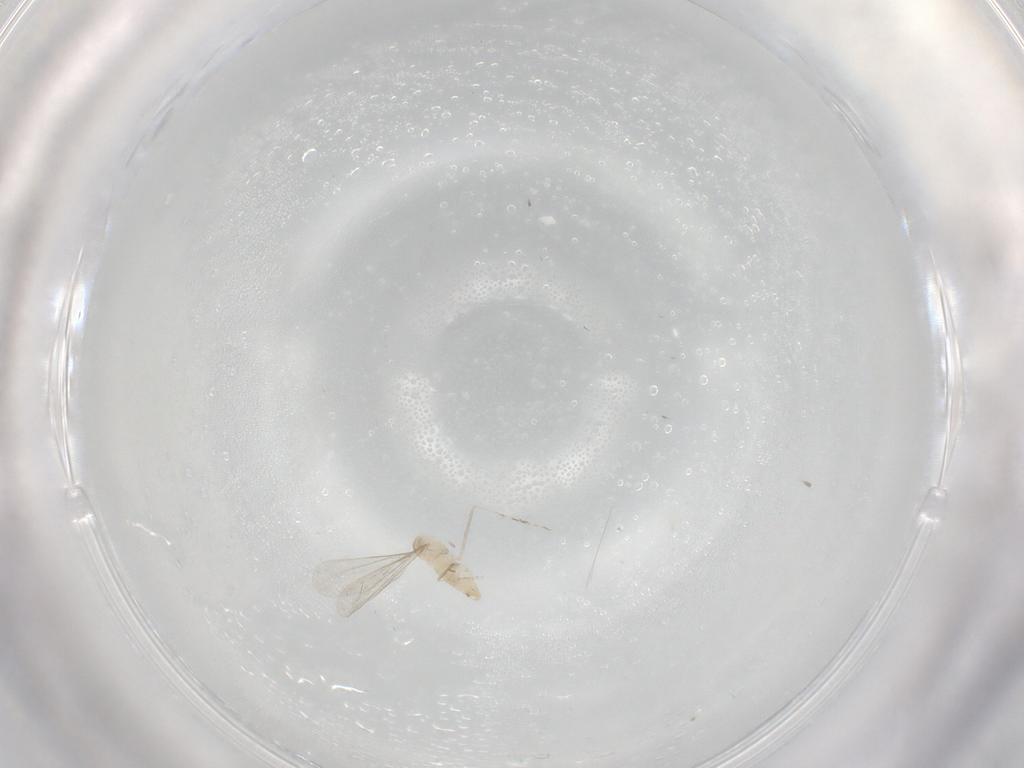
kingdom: Animalia
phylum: Arthropoda
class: Insecta
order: Diptera
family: Cecidomyiidae
